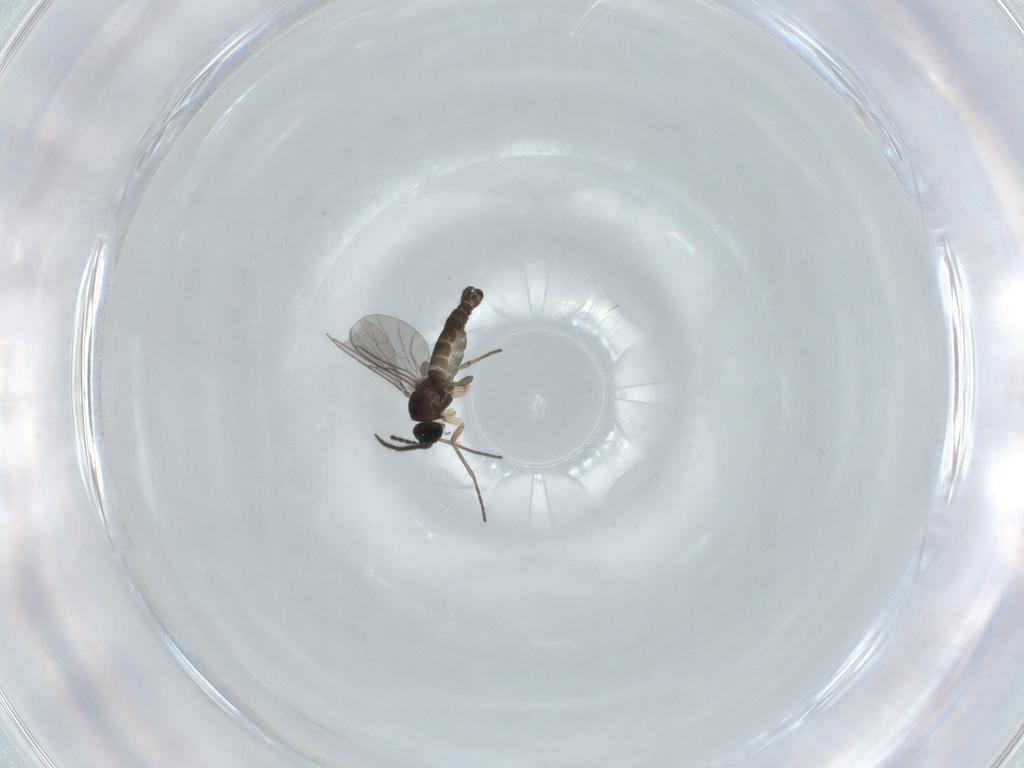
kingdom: Animalia
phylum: Arthropoda
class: Insecta
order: Diptera
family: Sciaridae
